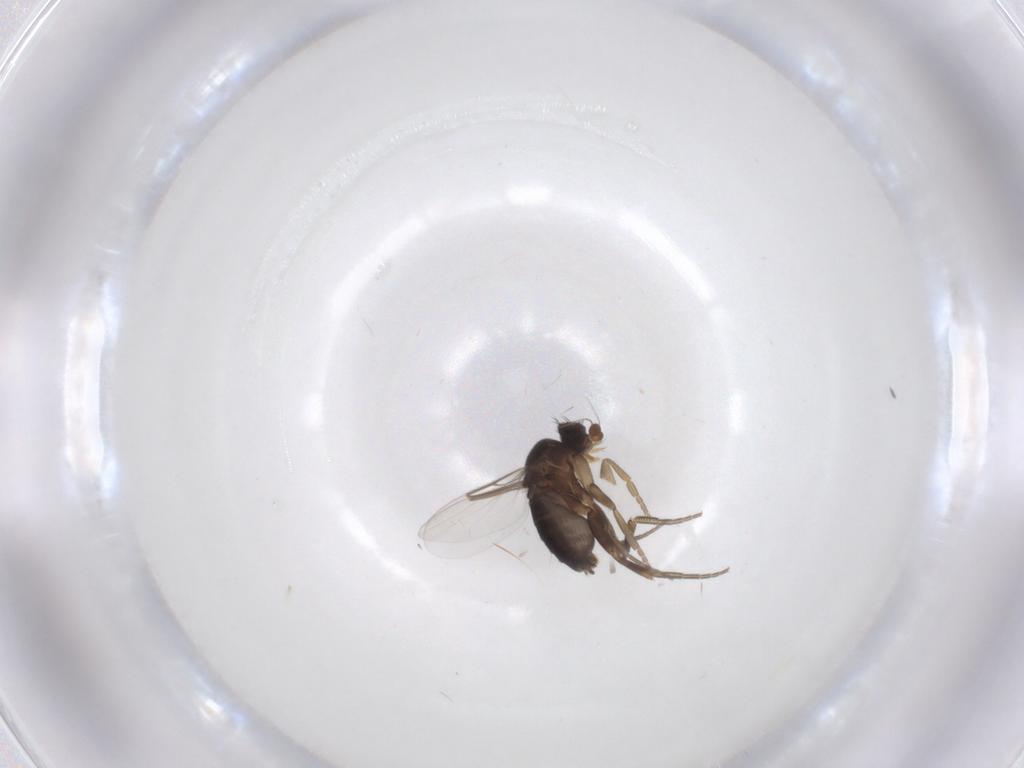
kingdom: Animalia
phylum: Arthropoda
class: Insecta
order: Diptera
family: Phoridae
